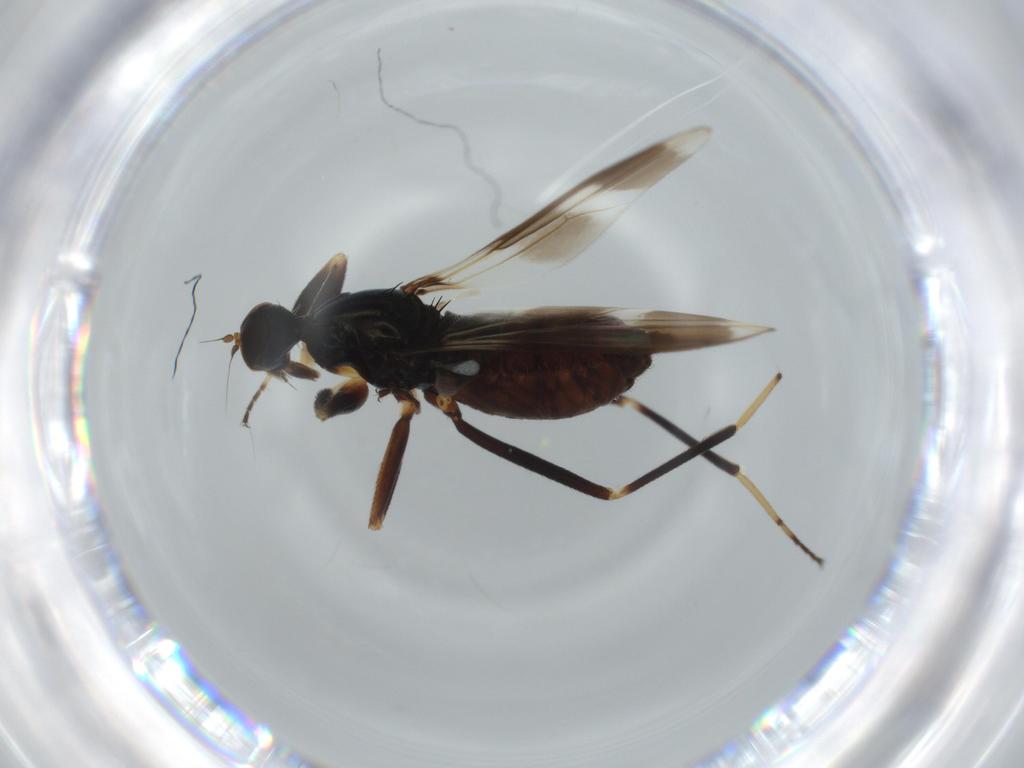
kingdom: Animalia
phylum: Arthropoda
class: Insecta
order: Diptera
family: Hybotidae
